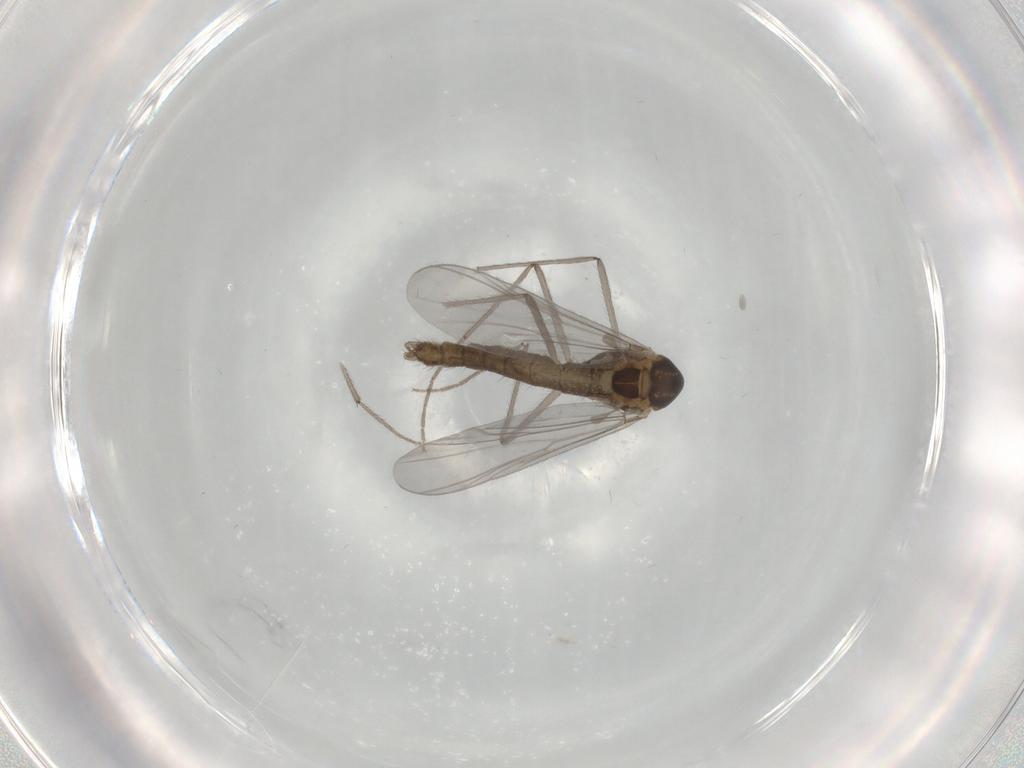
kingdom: Animalia
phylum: Arthropoda
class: Insecta
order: Diptera
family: Chironomidae
